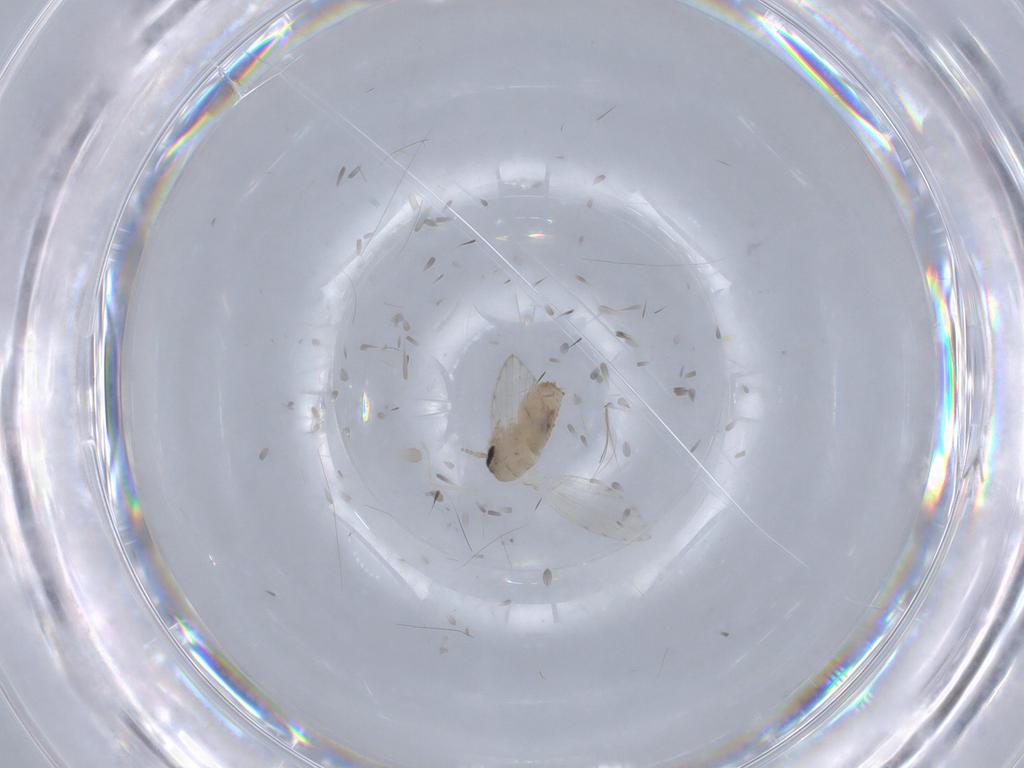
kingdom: Animalia
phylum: Arthropoda
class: Insecta
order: Diptera
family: Psychodidae
